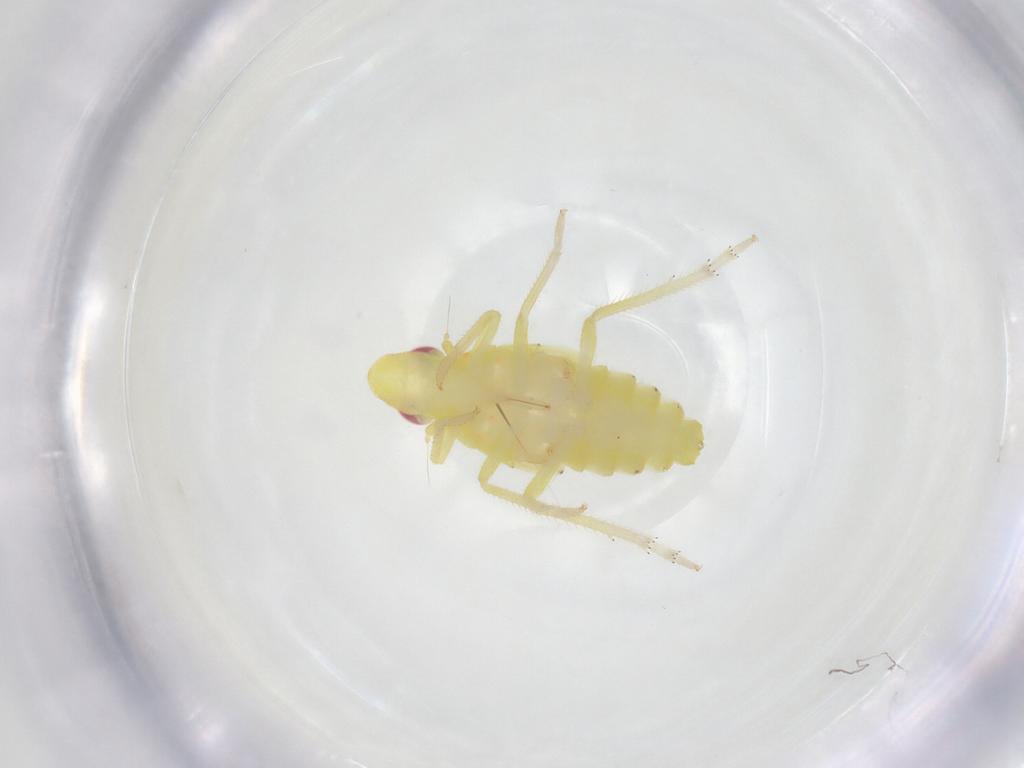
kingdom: Animalia
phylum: Arthropoda
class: Insecta
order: Hemiptera
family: Tropiduchidae
